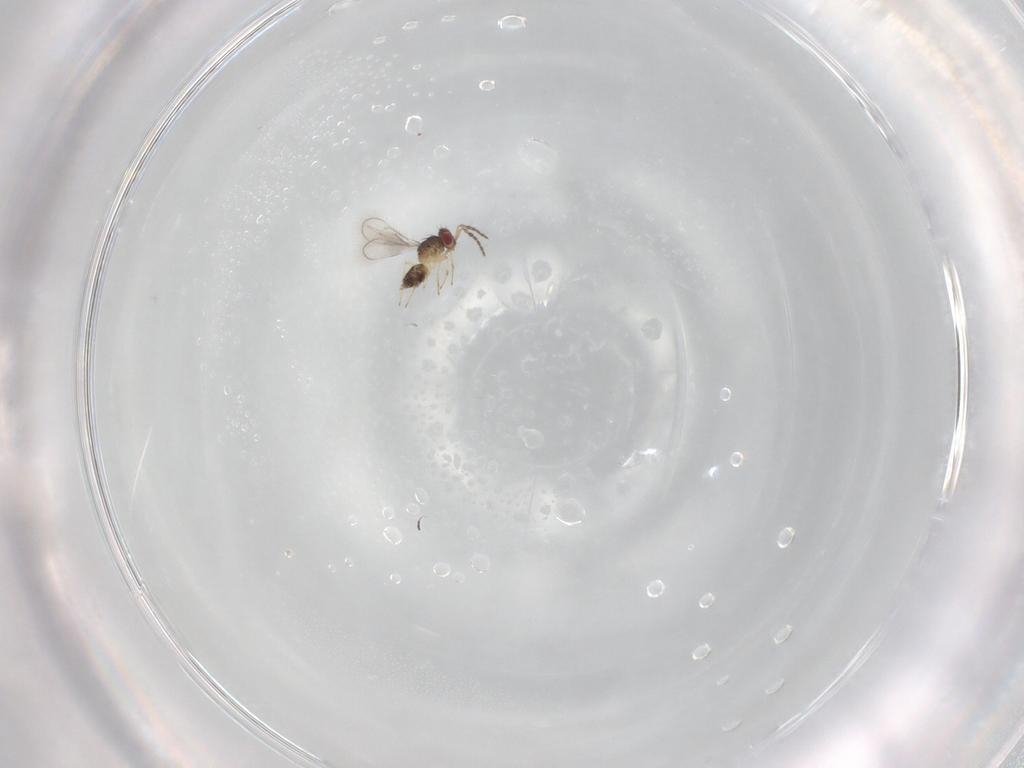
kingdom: Animalia
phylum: Arthropoda
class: Insecta
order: Hymenoptera
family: Eulophidae
